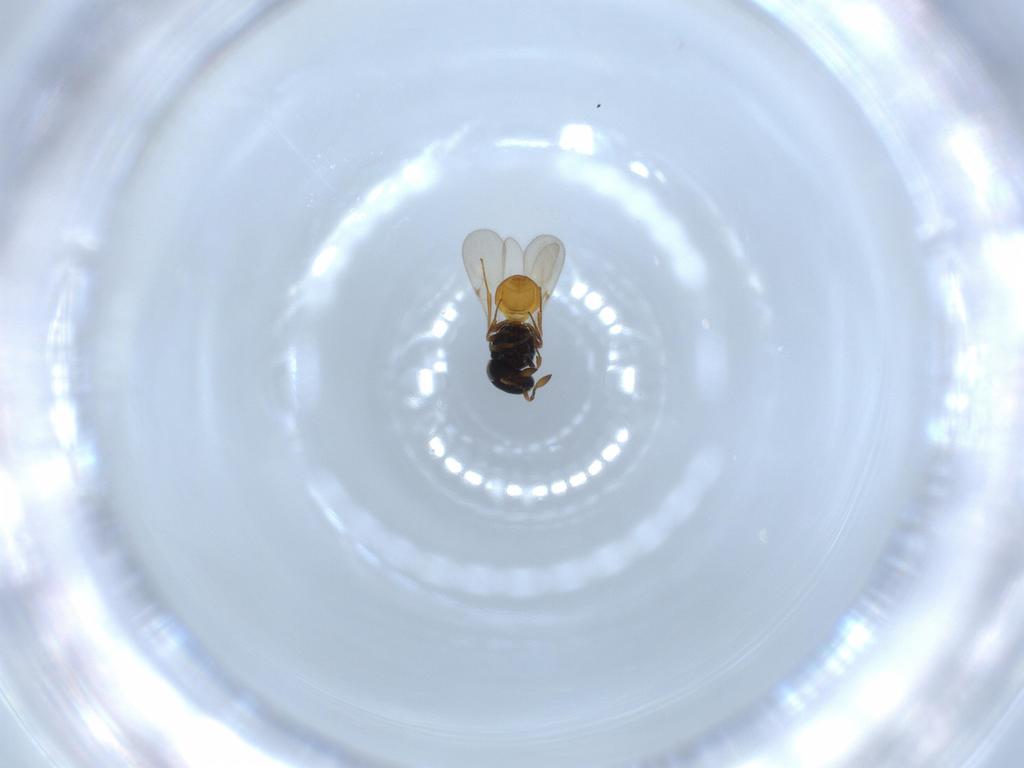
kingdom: Animalia
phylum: Arthropoda
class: Insecta
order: Hymenoptera
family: Scelionidae
